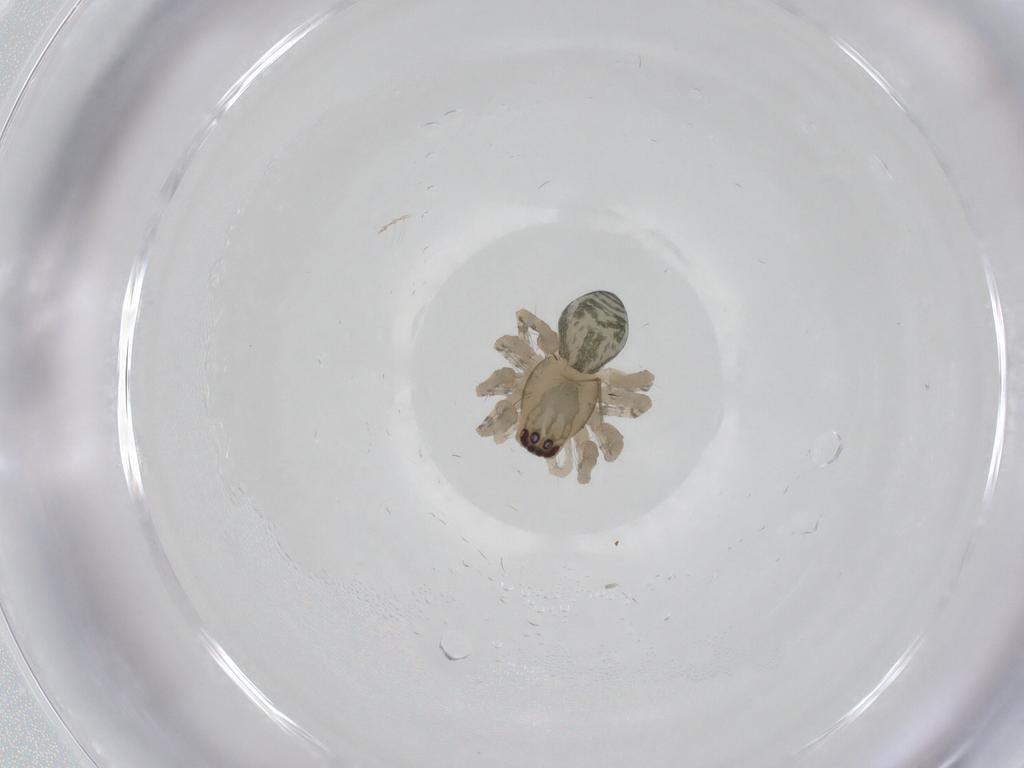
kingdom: Animalia
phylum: Arthropoda
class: Arachnida
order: Araneae
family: Anyphaenidae
